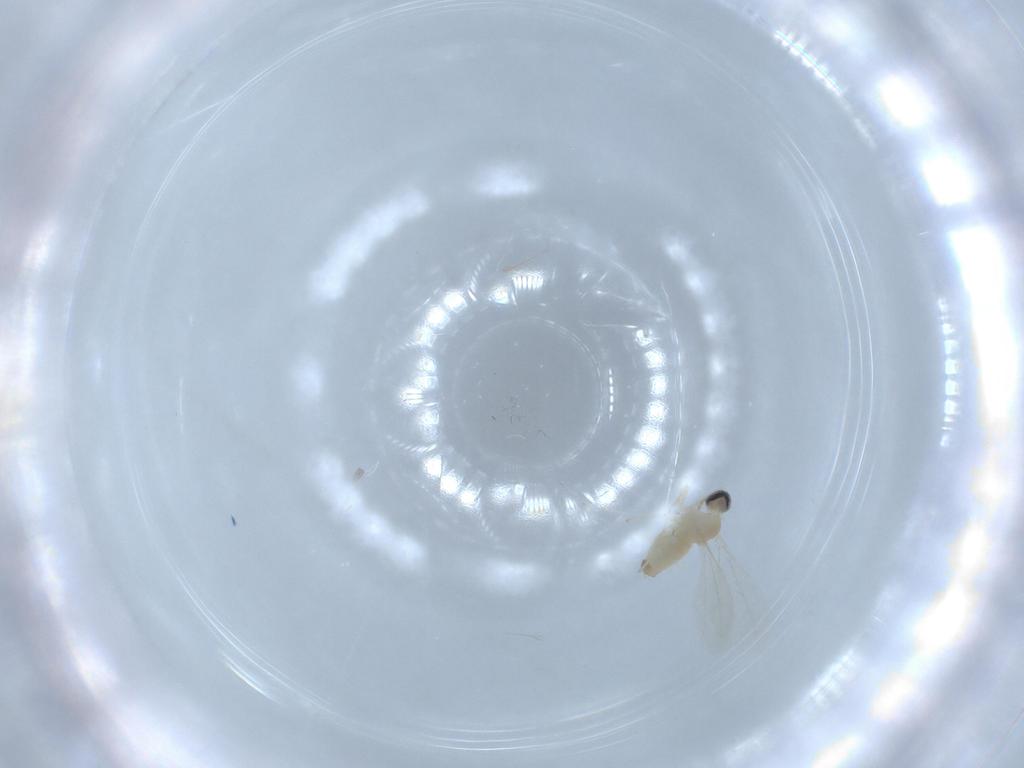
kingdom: Animalia
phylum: Arthropoda
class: Insecta
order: Diptera
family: Cecidomyiidae
